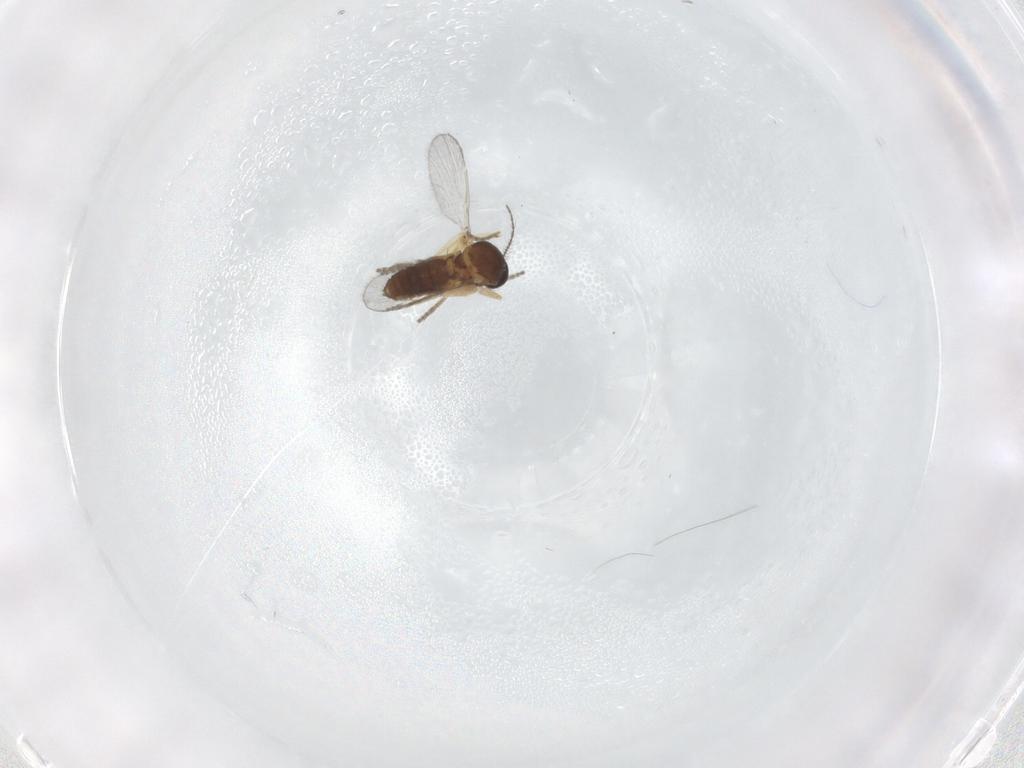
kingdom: Animalia
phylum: Arthropoda
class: Insecta
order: Diptera
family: Ceratopogonidae
